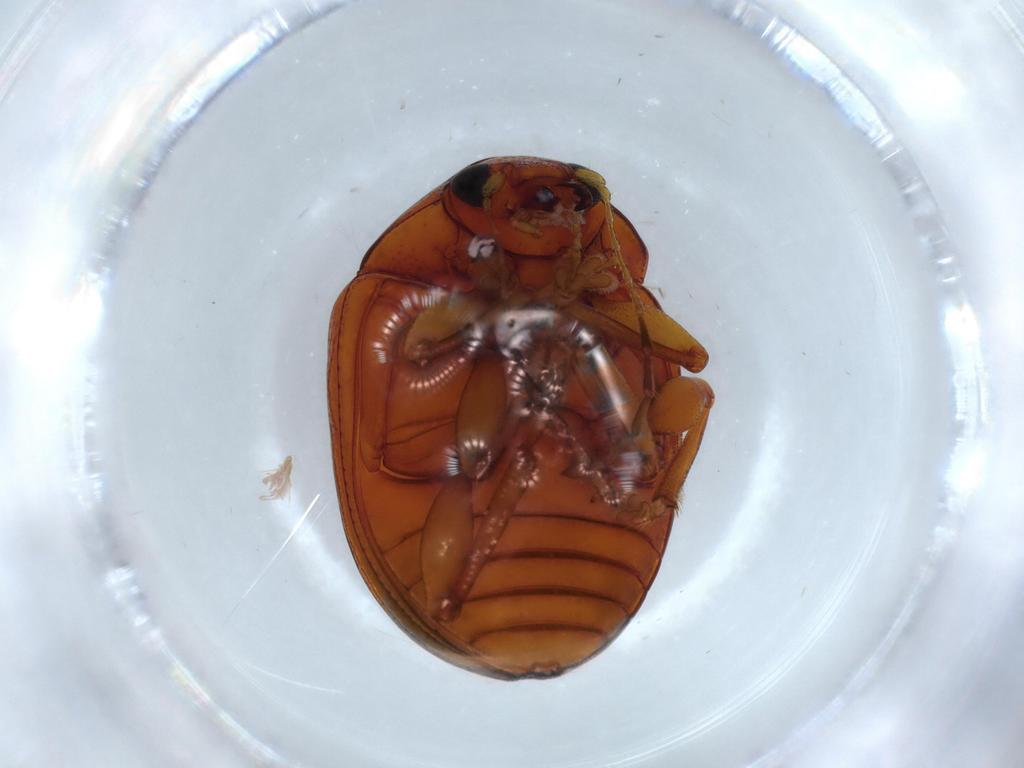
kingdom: Animalia
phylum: Arthropoda
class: Insecta
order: Coleoptera
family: Chrysomelidae
